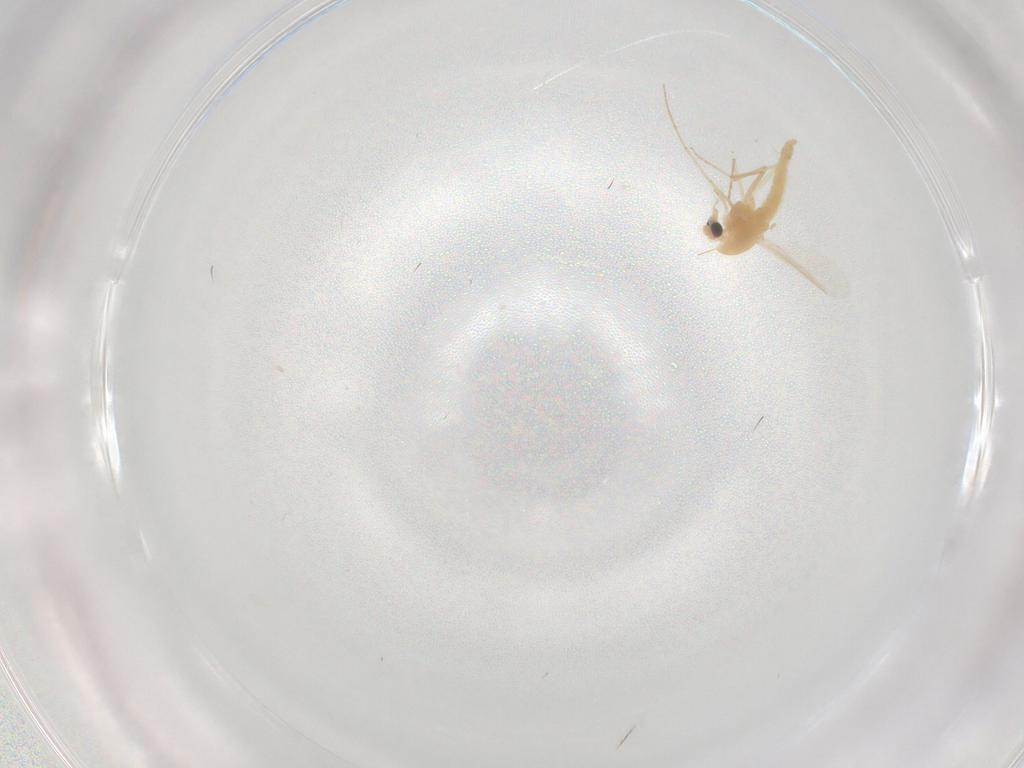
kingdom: Animalia
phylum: Arthropoda
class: Insecta
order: Diptera
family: Chironomidae
